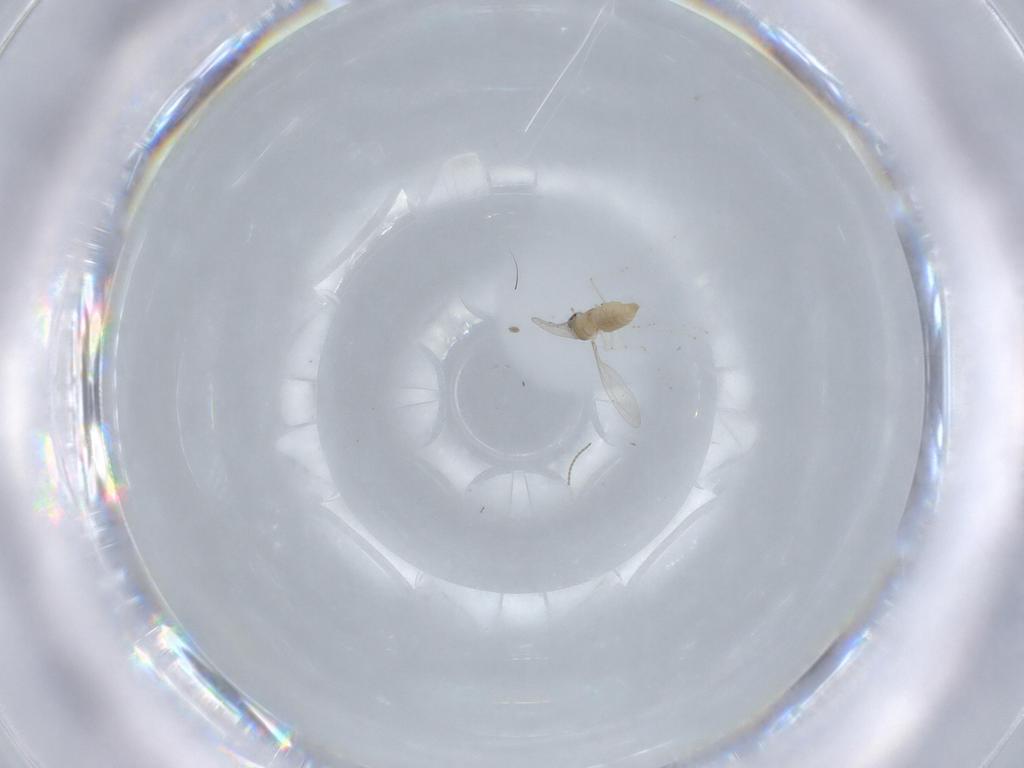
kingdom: Animalia
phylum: Arthropoda
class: Insecta
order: Diptera
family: Cecidomyiidae
